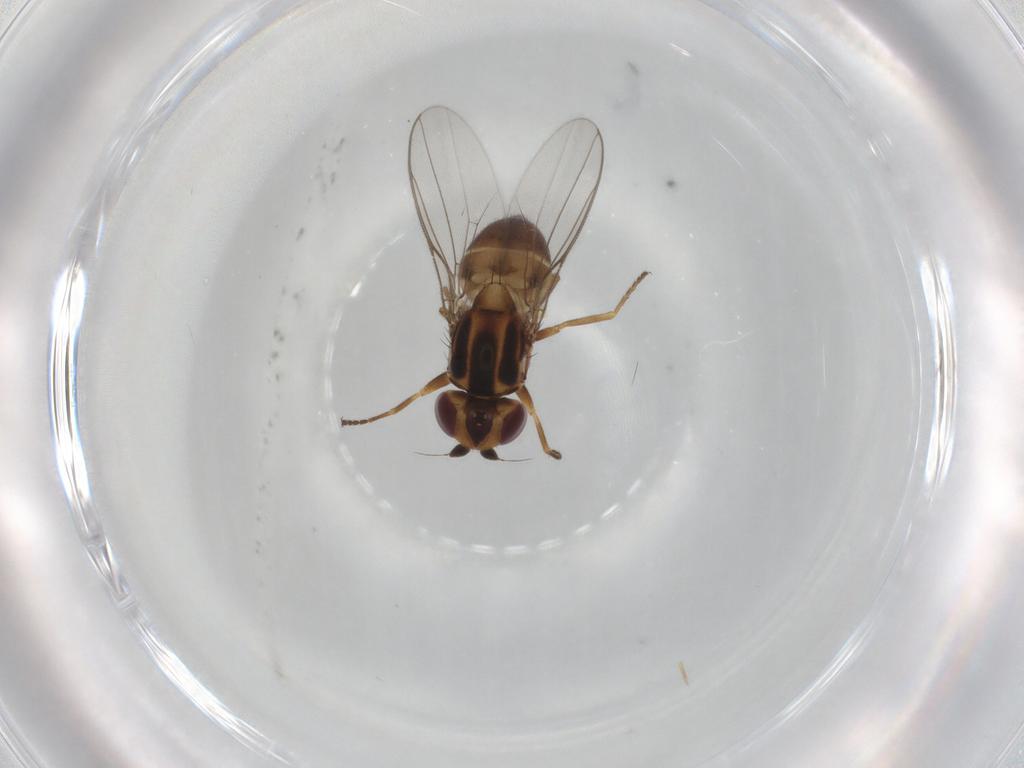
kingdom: Animalia
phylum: Arthropoda
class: Insecta
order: Diptera
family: Chloropidae
